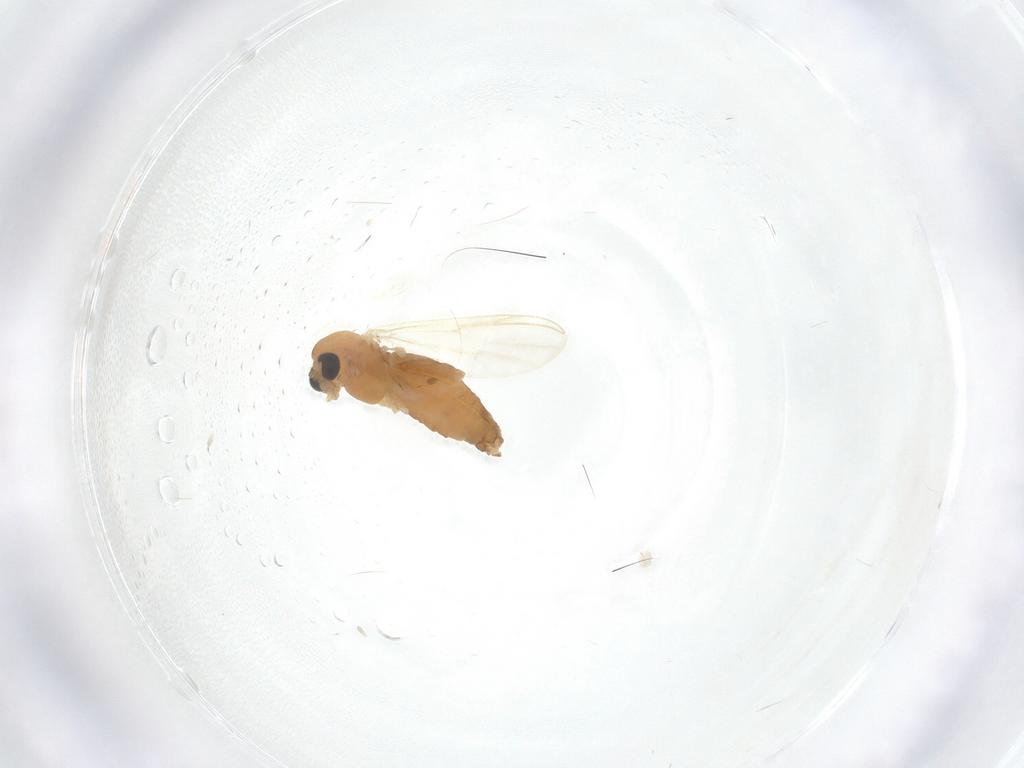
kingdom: Animalia
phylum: Arthropoda
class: Insecta
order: Diptera
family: Chironomidae
